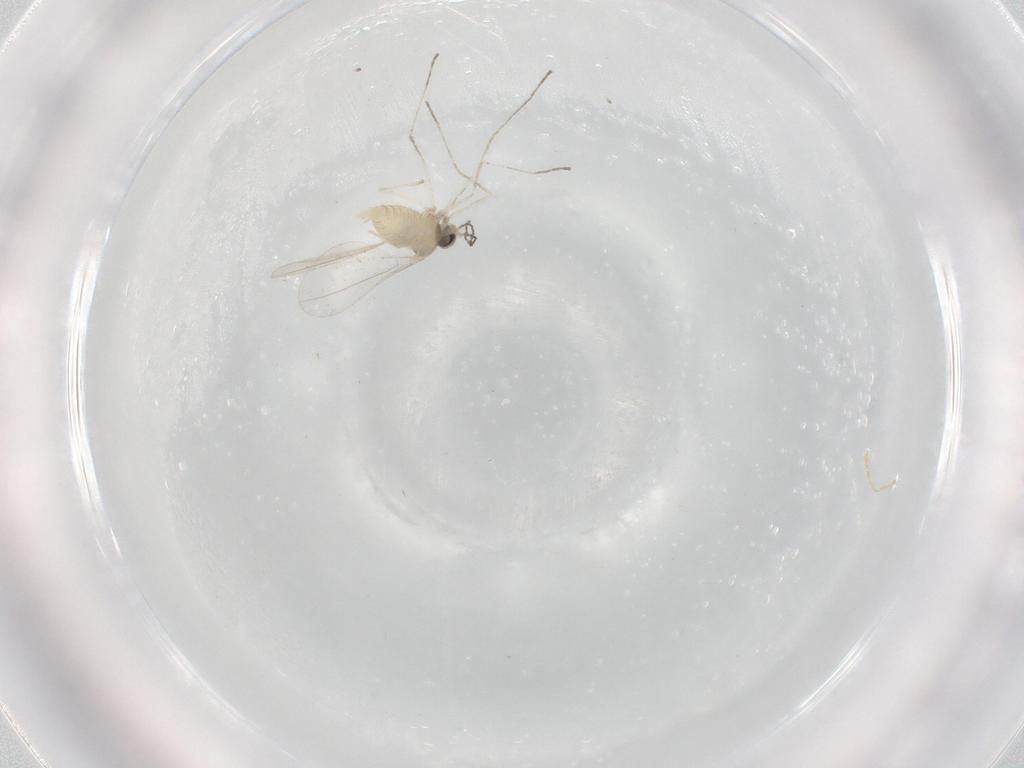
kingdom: Animalia
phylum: Arthropoda
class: Insecta
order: Diptera
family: Cecidomyiidae
